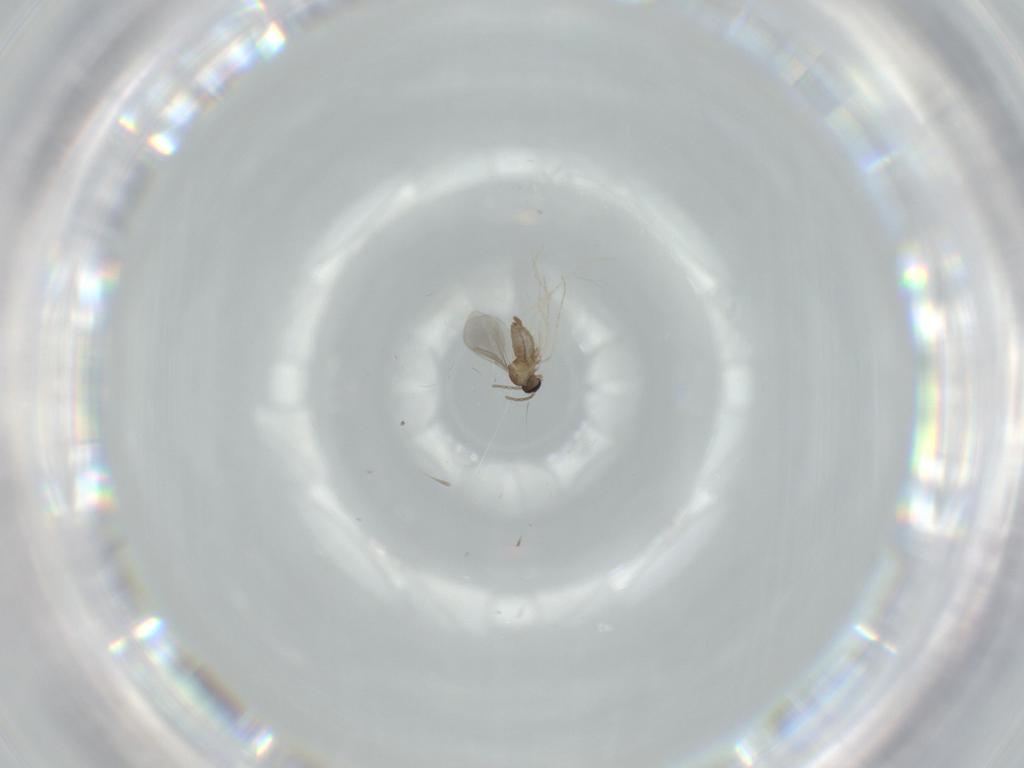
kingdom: Animalia
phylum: Arthropoda
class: Insecta
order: Diptera
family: Cecidomyiidae
